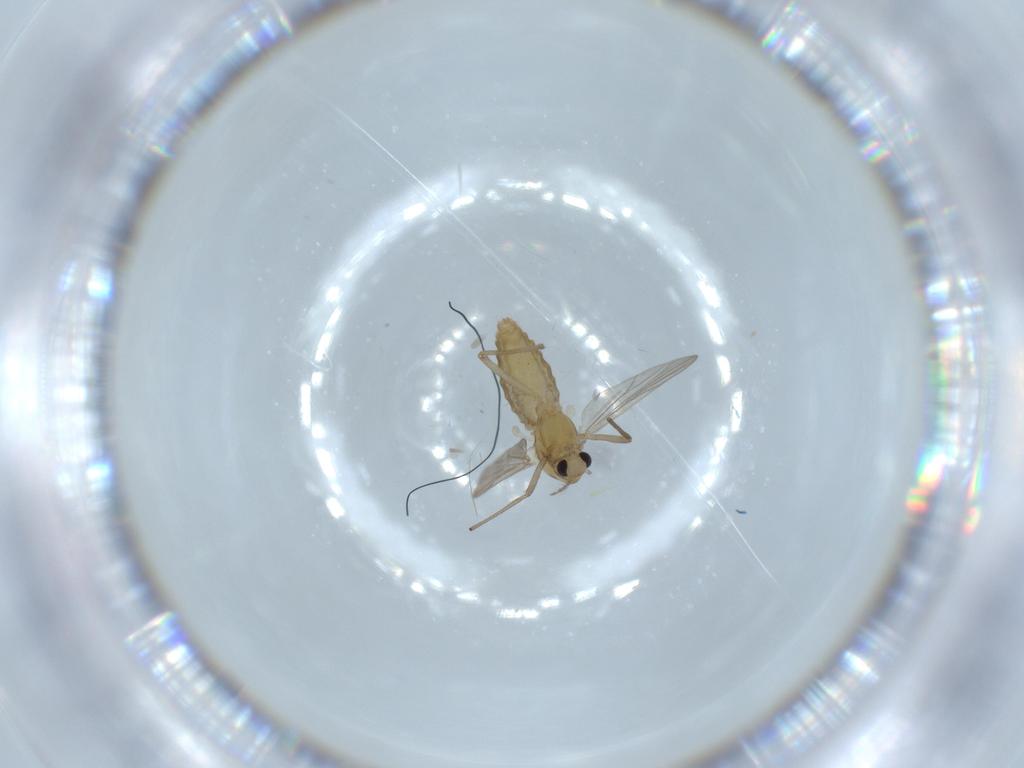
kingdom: Animalia
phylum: Arthropoda
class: Insecta
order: Diptera
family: Chironomidae
